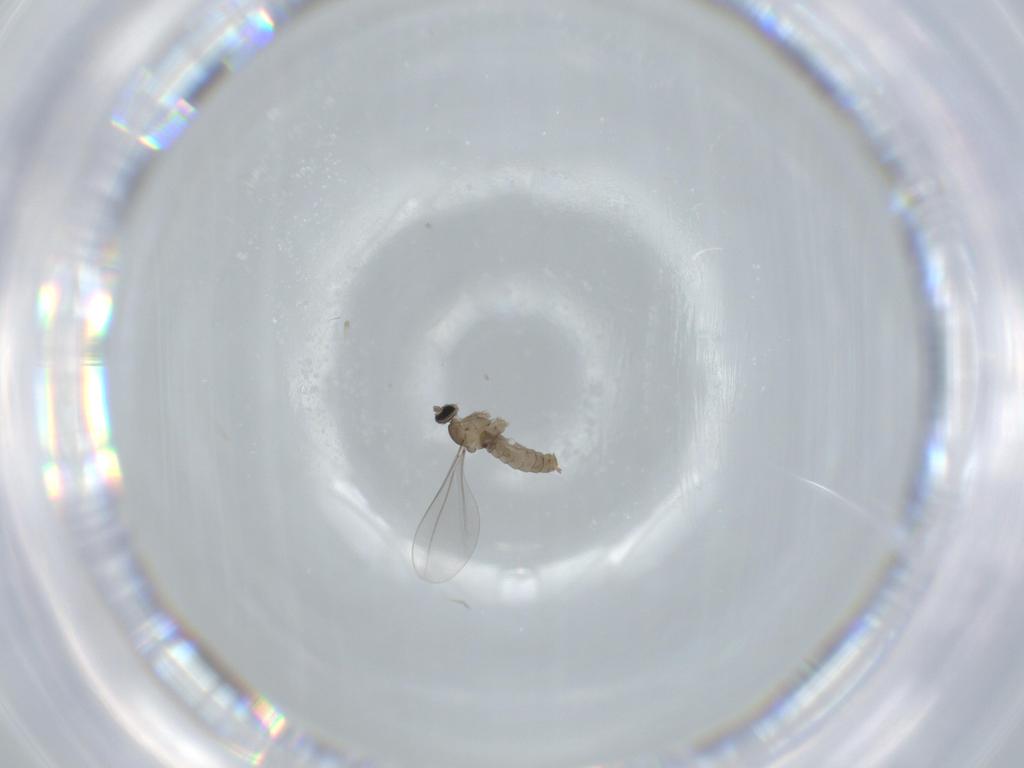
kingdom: Animalia
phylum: Arthropoda
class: Insecta
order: Diptera
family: Cecidomyiidae
